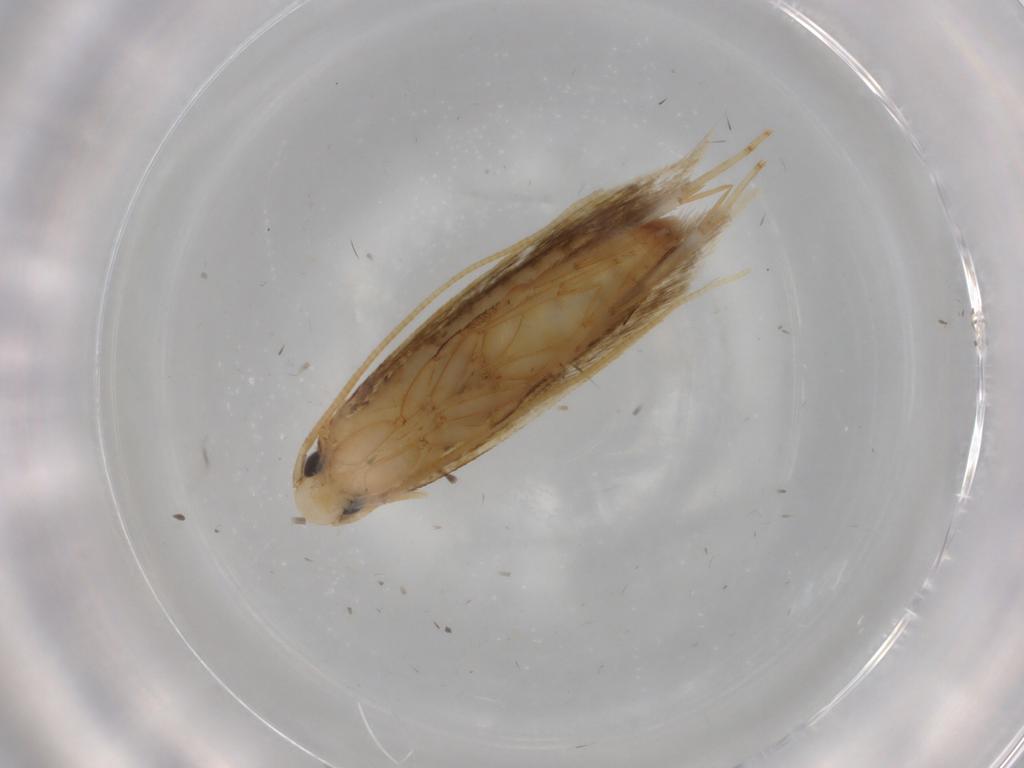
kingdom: Animalia
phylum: Arthropoda
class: Insecta
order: Lepidoptera
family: Tineidae
